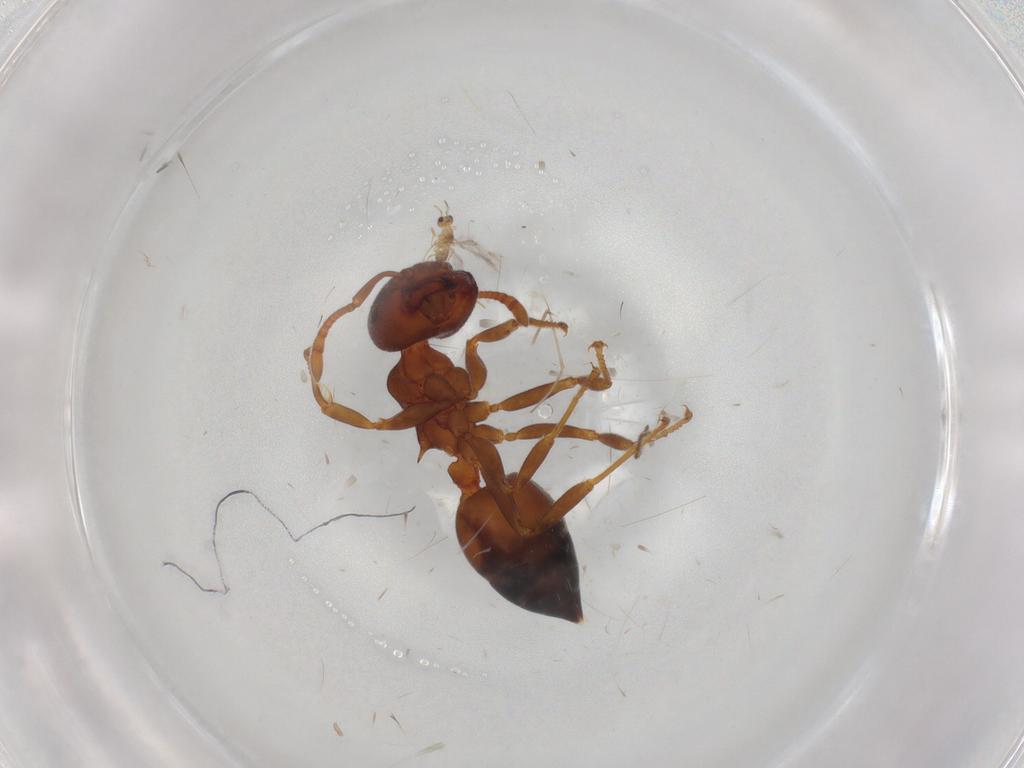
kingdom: Animalia
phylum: Arthropoda
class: Insecta
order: Hymenoptera
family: Formicidae
